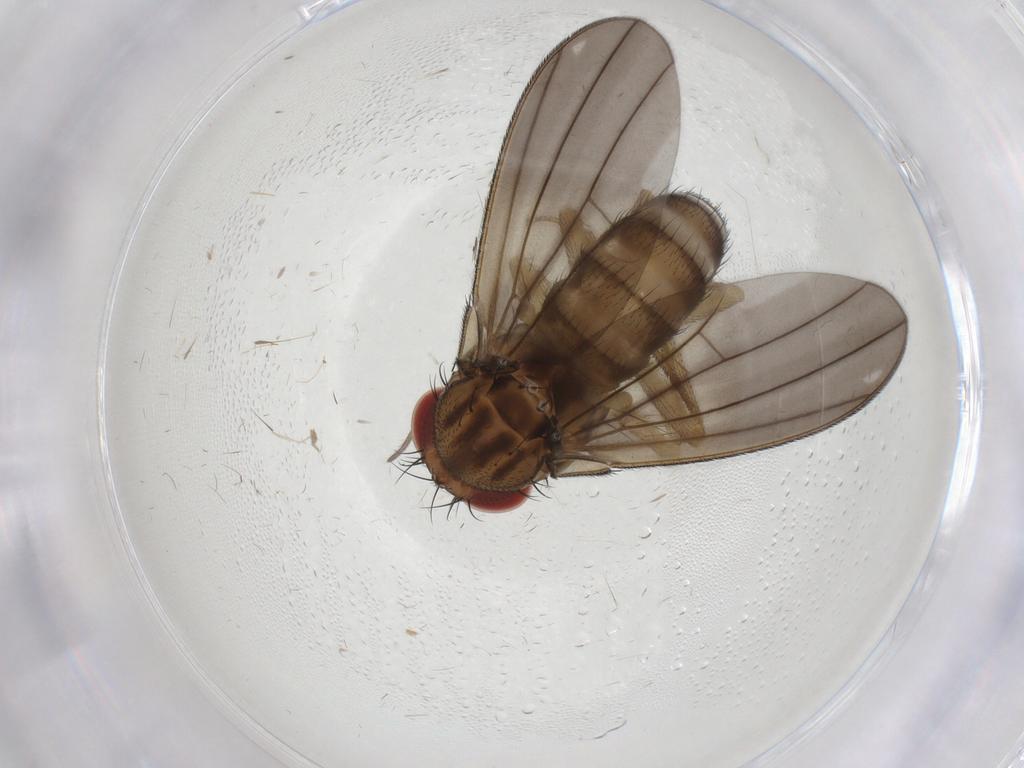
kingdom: Animalia
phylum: Arthropoda
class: Insecta
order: Diptera
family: Drosophilidae
